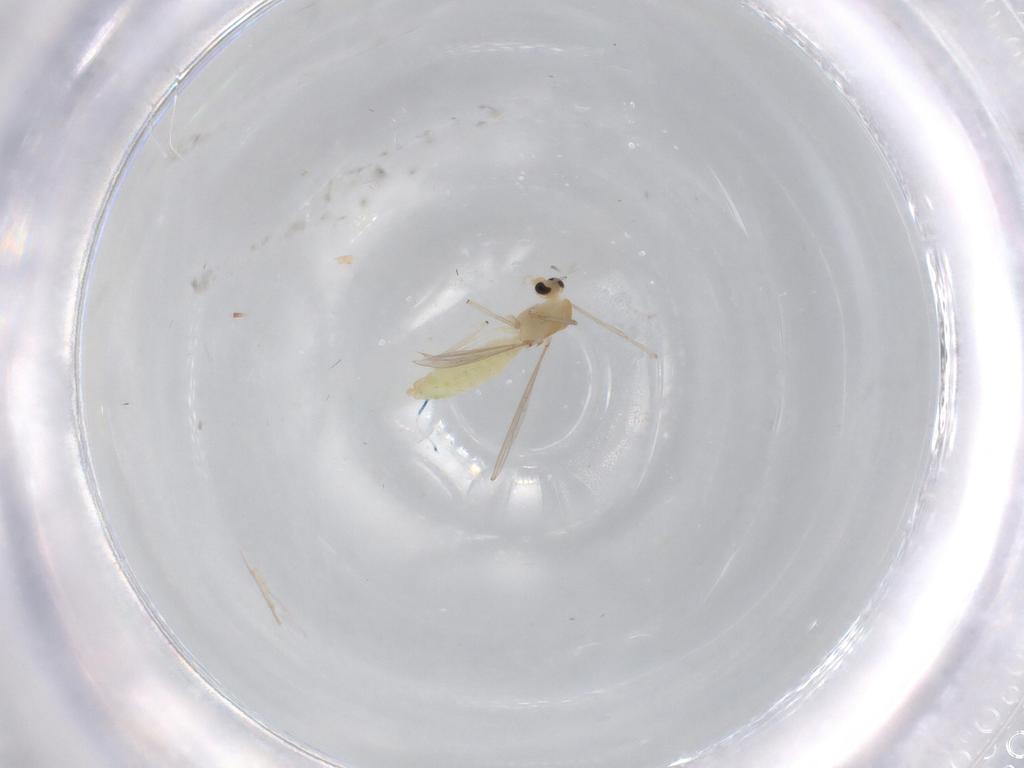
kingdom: Animalia
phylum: Arthropoda
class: Insecta
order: Diptera
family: Chironomidae
